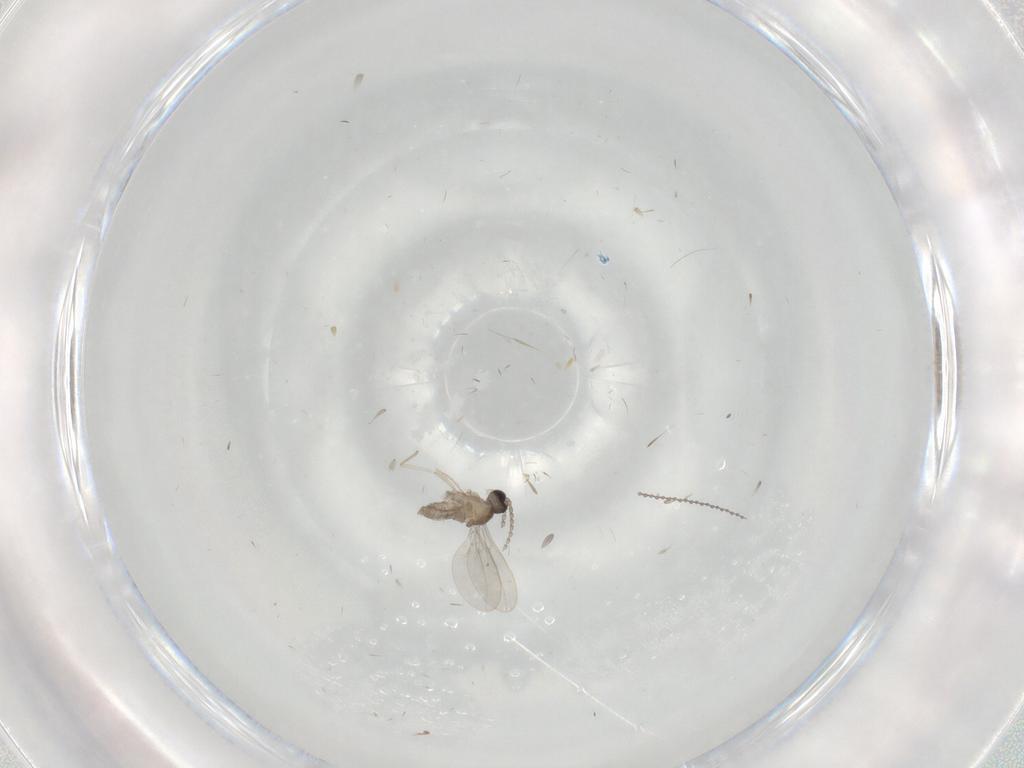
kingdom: Animalia
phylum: Arthropoda
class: Insecta
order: Diptera
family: Cecidomyiidae
